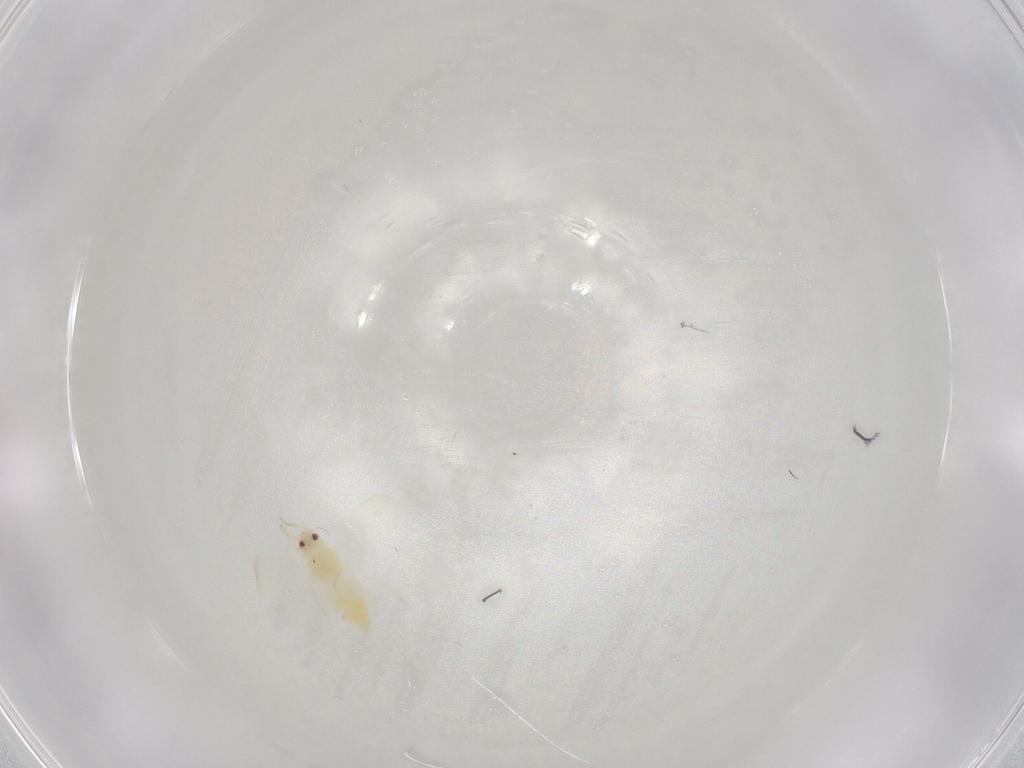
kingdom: Animalia
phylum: Arthropoda
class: Insecta
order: Hemiptera
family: Aleyrodidae
